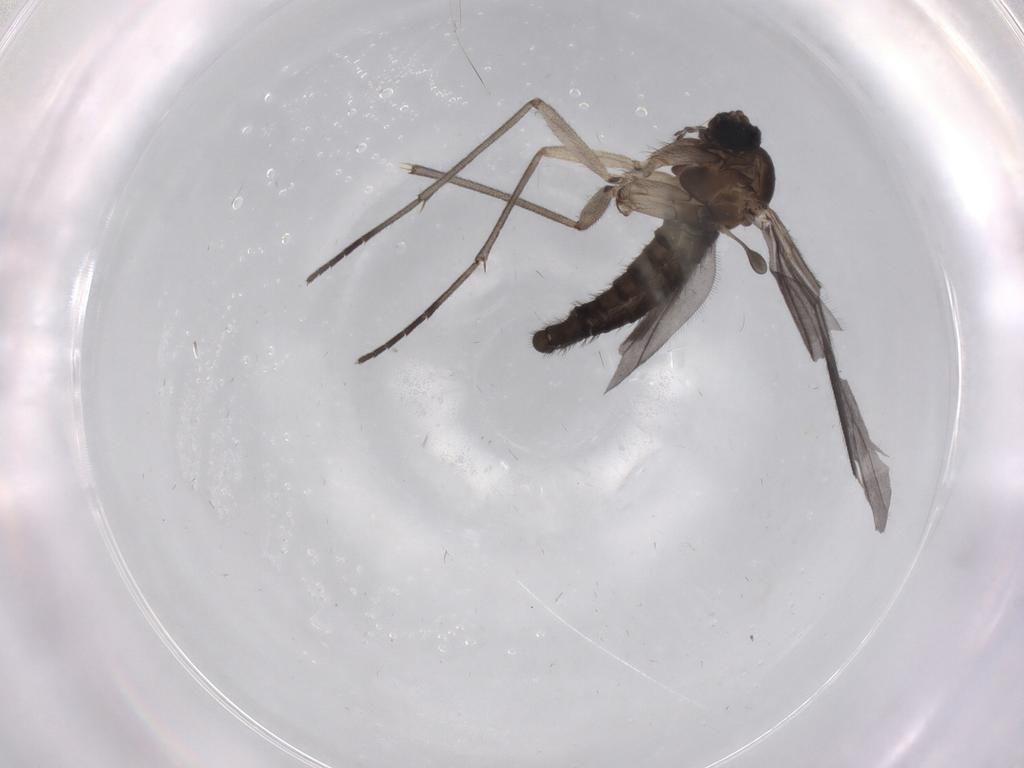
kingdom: Animalia
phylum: Arthropoda
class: Insecta
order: Diptera
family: Sciaridae
